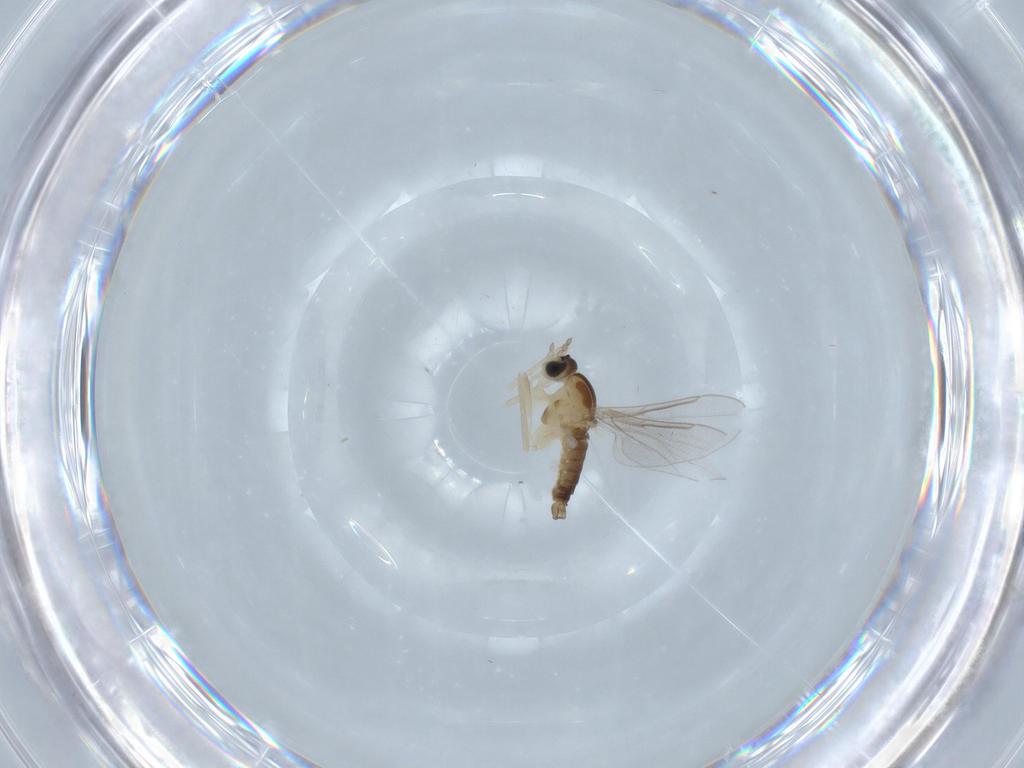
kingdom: Animalia
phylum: Arthropoda
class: Insecta
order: Diptera
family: Cecidomyiidae
